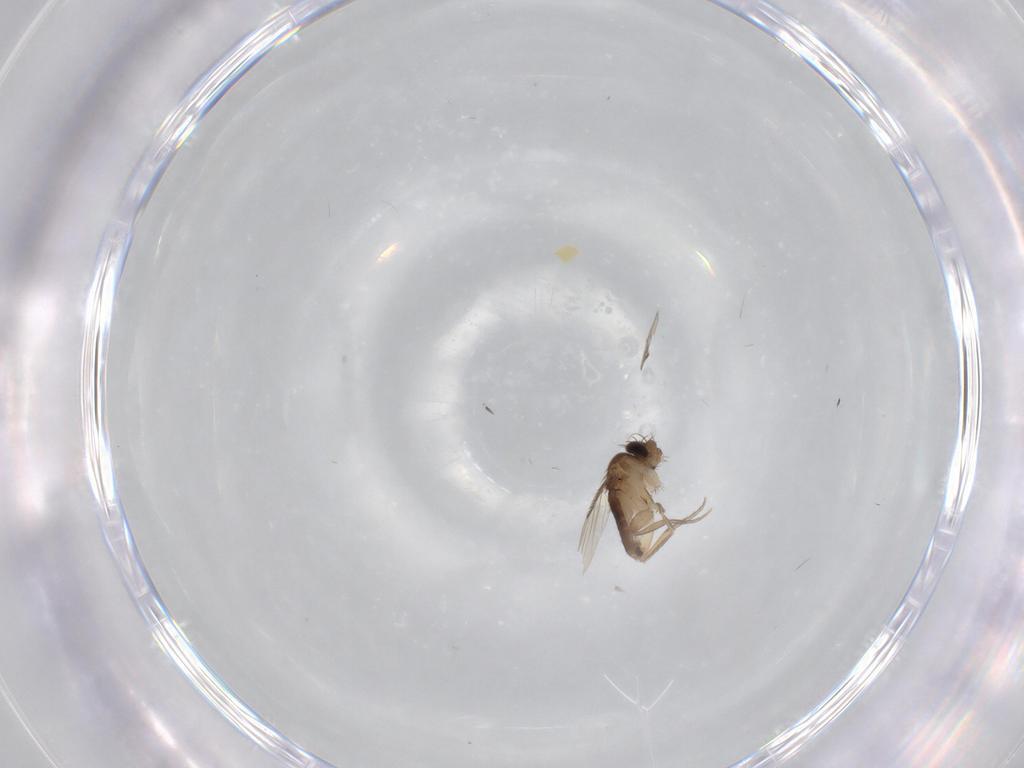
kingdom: Animalia
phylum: Arthropoda
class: Insecta
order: Diptera
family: Phoridae
